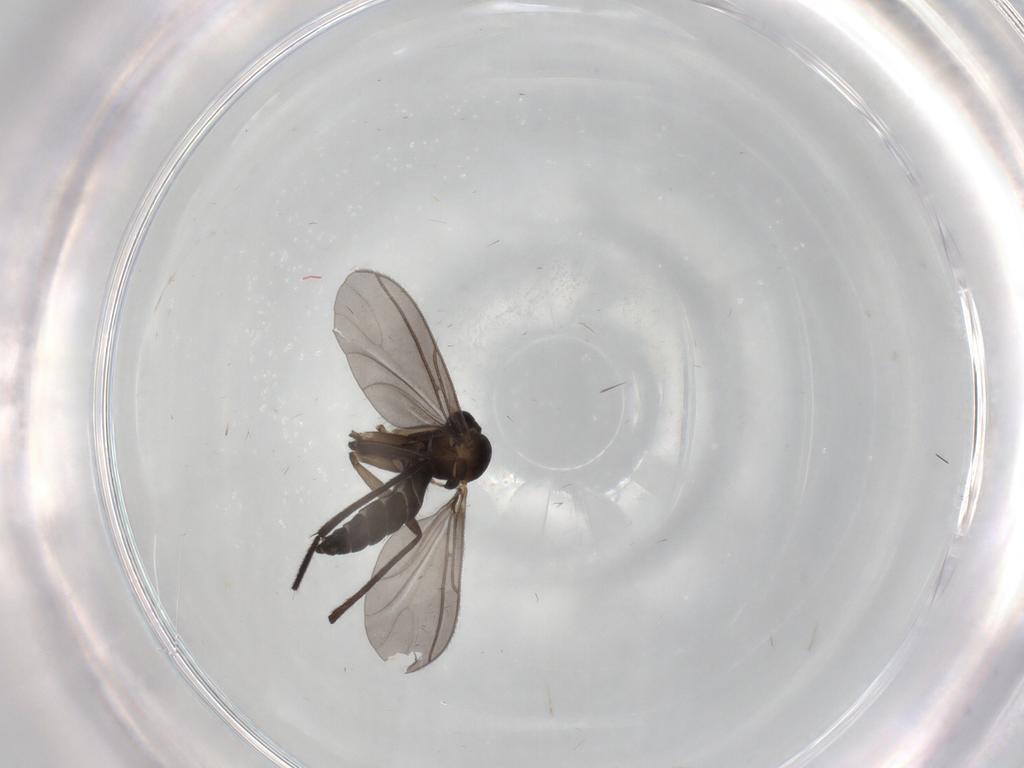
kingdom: Animalia
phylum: Arthropoda
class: Insecta
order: Diptera
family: Sciaridae
